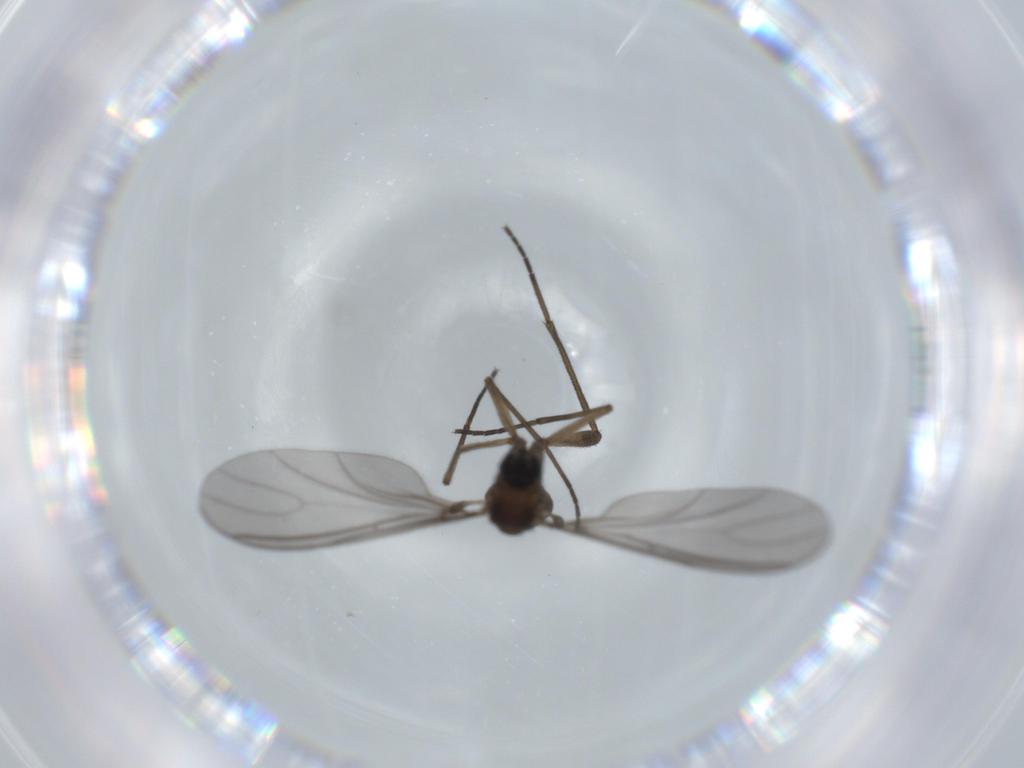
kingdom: Animalia
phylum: Arthropoda
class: Insecta
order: Diptera
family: Sciaridae
